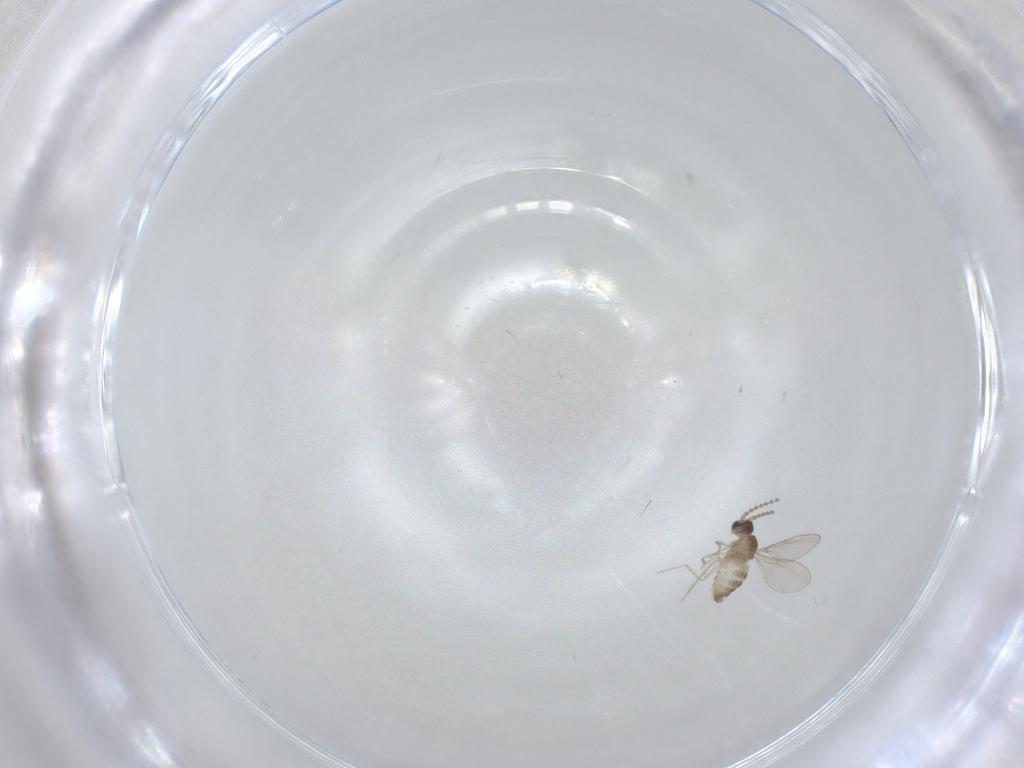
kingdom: Animalia
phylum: Arthropoda
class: Insecta
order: Diptera
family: Cecidomyiidae
